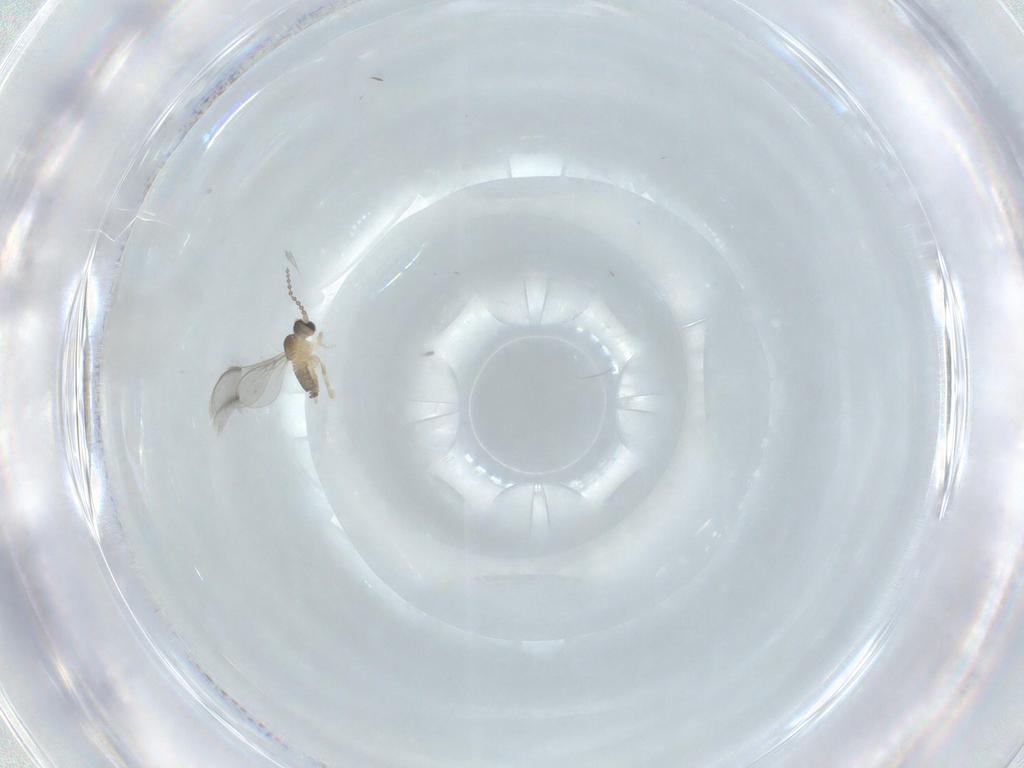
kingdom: Animalia
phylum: Arthropoda
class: Insecta
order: Diptera
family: Cecidomyiidae
